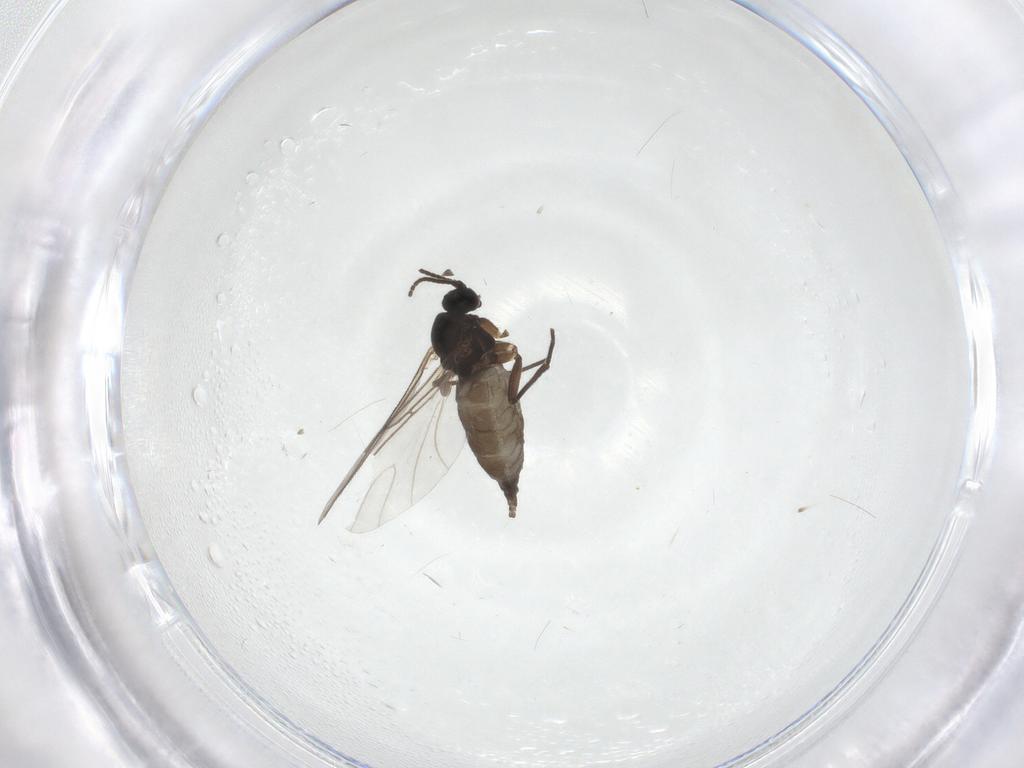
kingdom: Animalia
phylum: Arthropoda
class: Insecta
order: Diptera
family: Sciaridae
